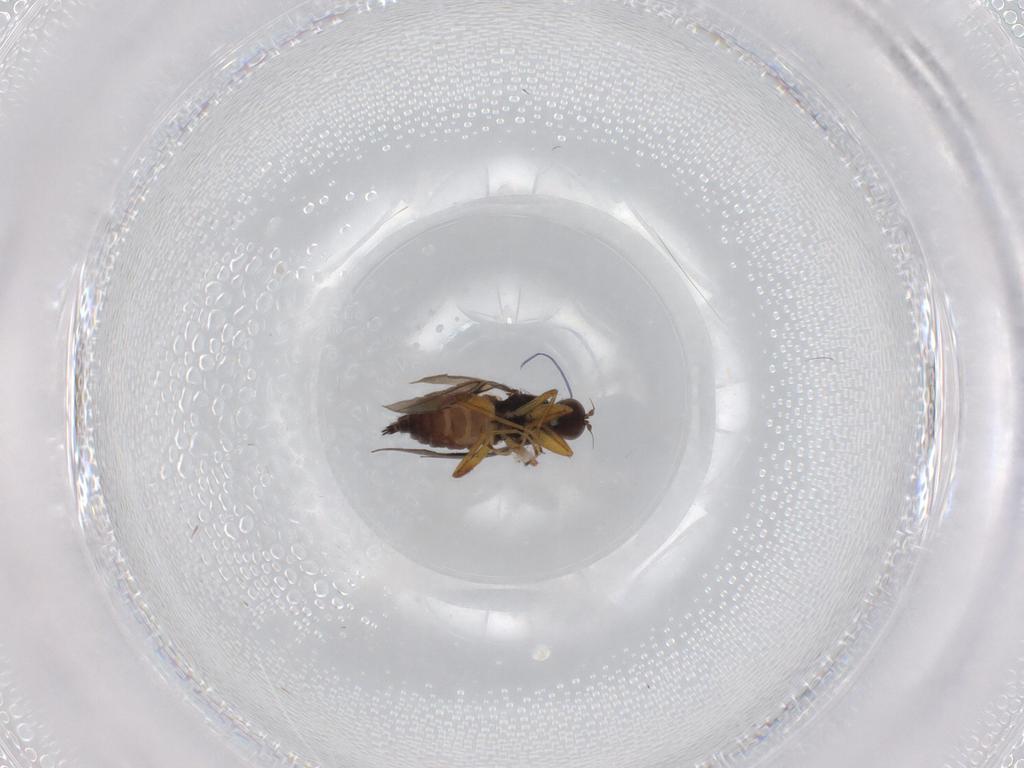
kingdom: Animalia
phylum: Arthropoda
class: Insecta
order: Diptera
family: Hybotidae
